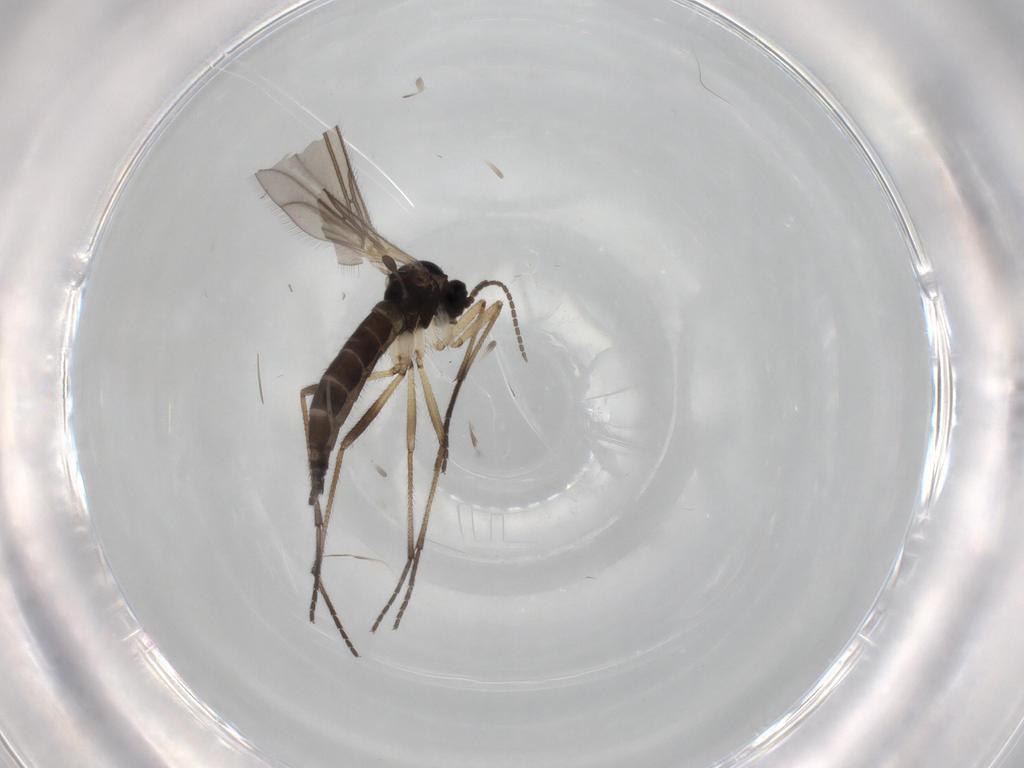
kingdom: Animalia
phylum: Arthropoda
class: Insecta
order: Diptera
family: Sciaridae
